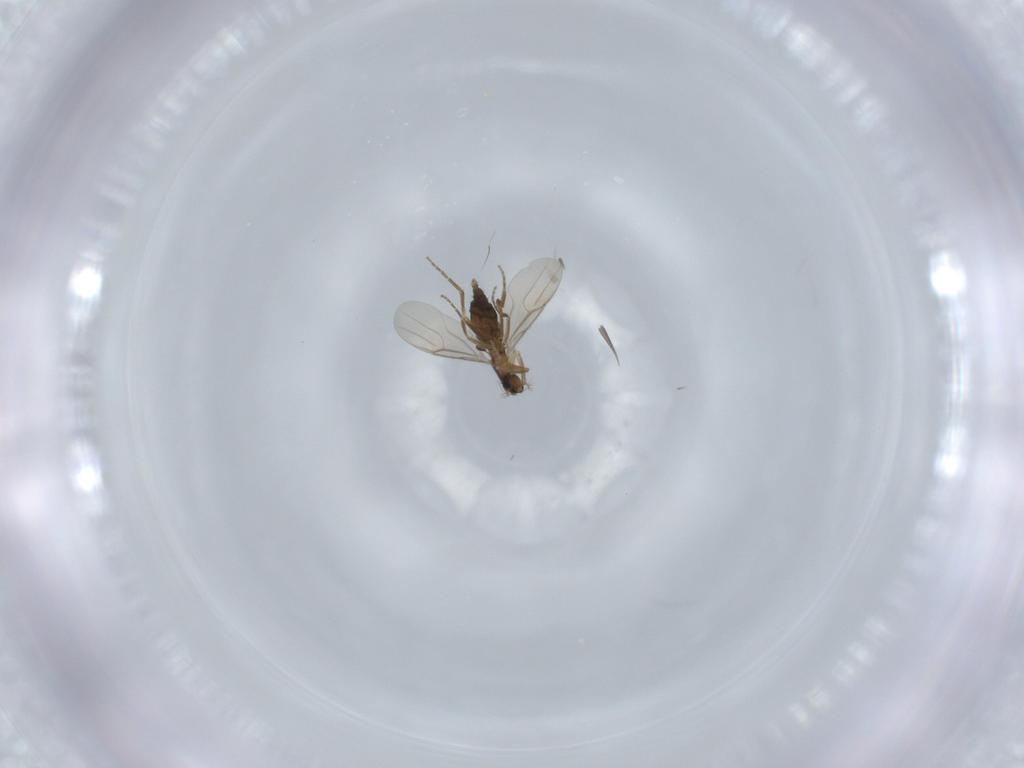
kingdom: Animalia
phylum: Arthropoda
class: Insecta
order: Diptera
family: Phoridae
